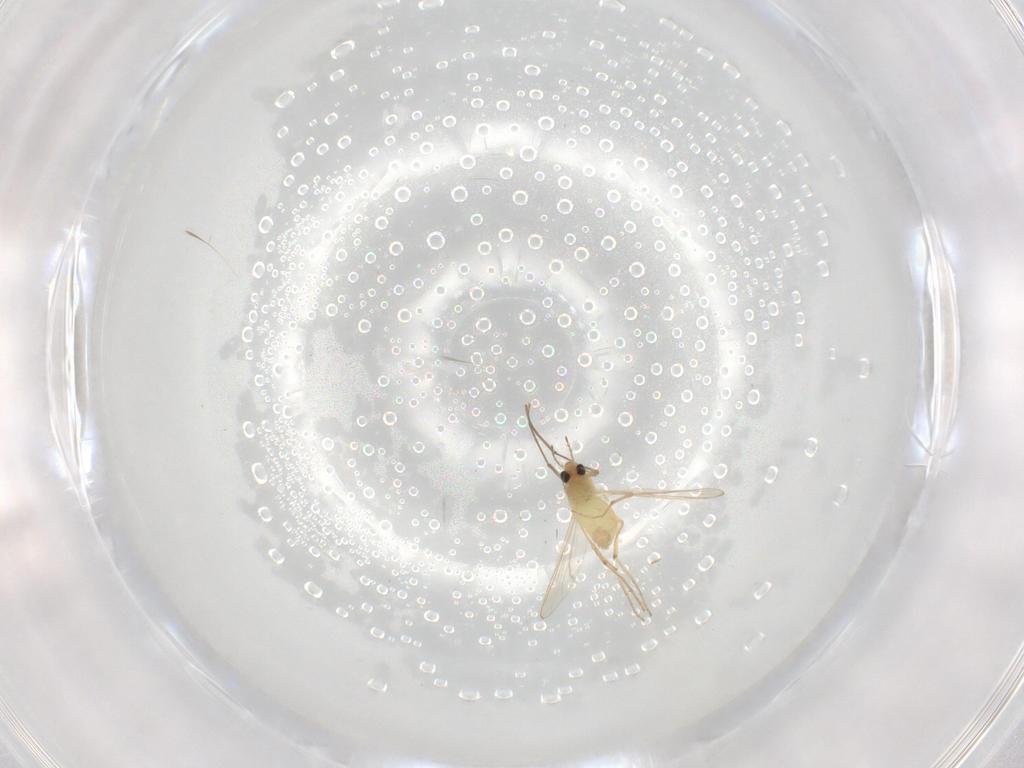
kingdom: Animalia
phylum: Arthropoda
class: Insecta
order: Diptera
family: Chironomidae
